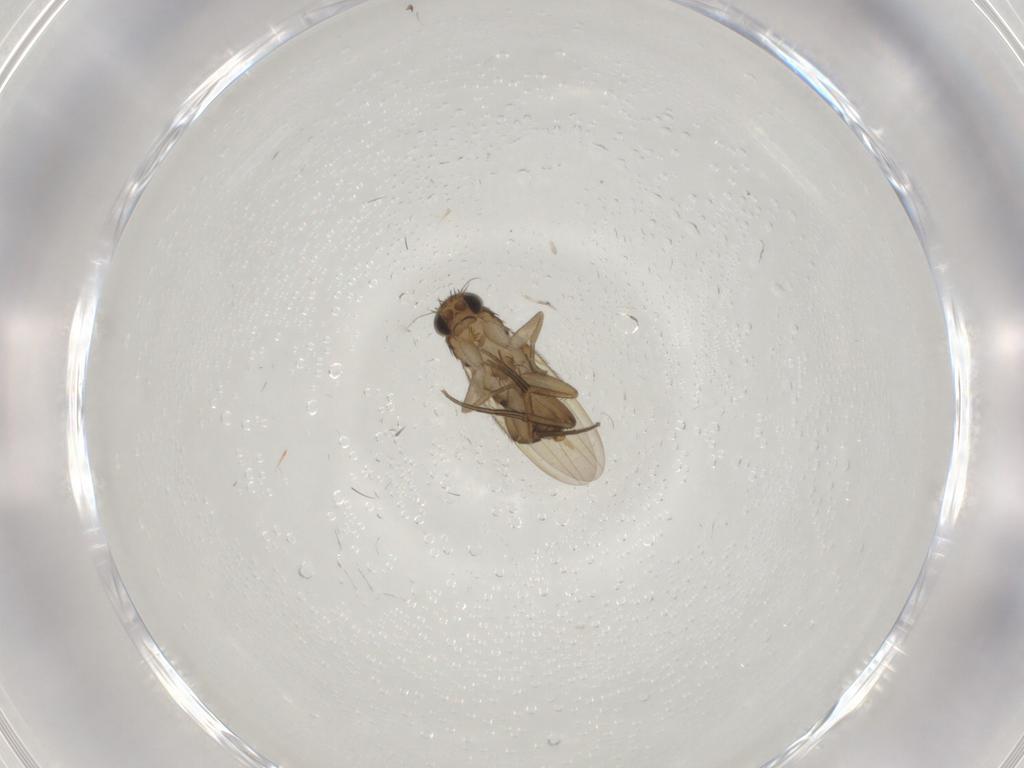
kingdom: Animalia
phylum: Arthropoda
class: Insecta
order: Diptera
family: Phoridae
